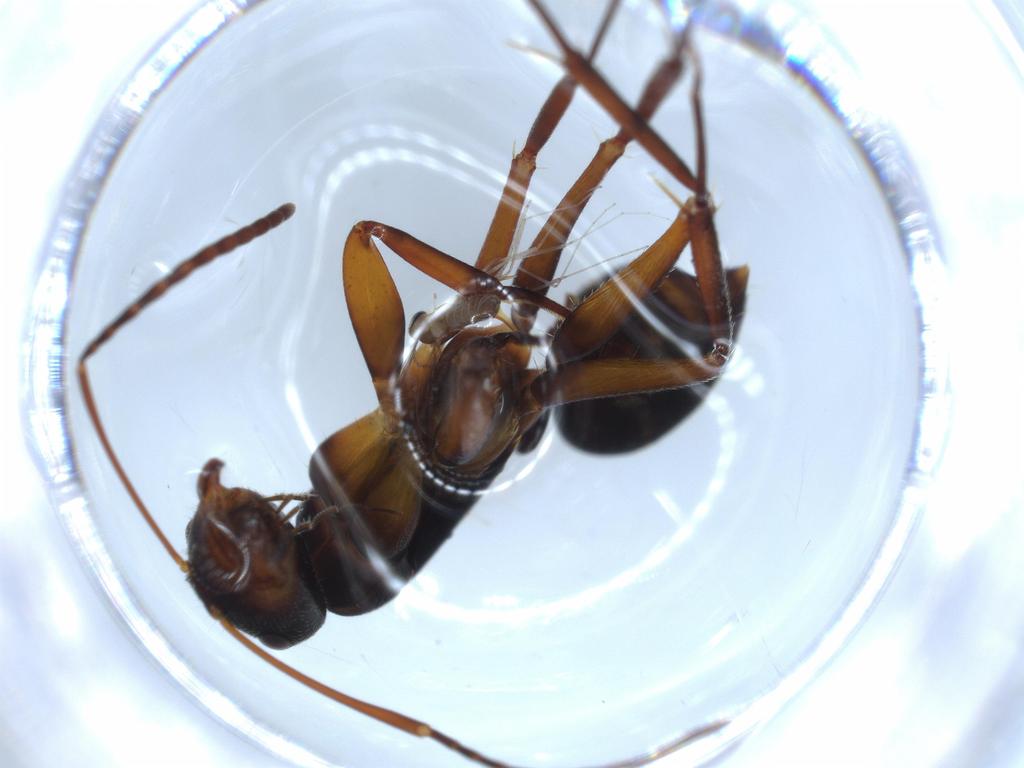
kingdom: Animalia
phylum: Arthropoda
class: Insecta
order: Hymenoptera
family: Formicidae
